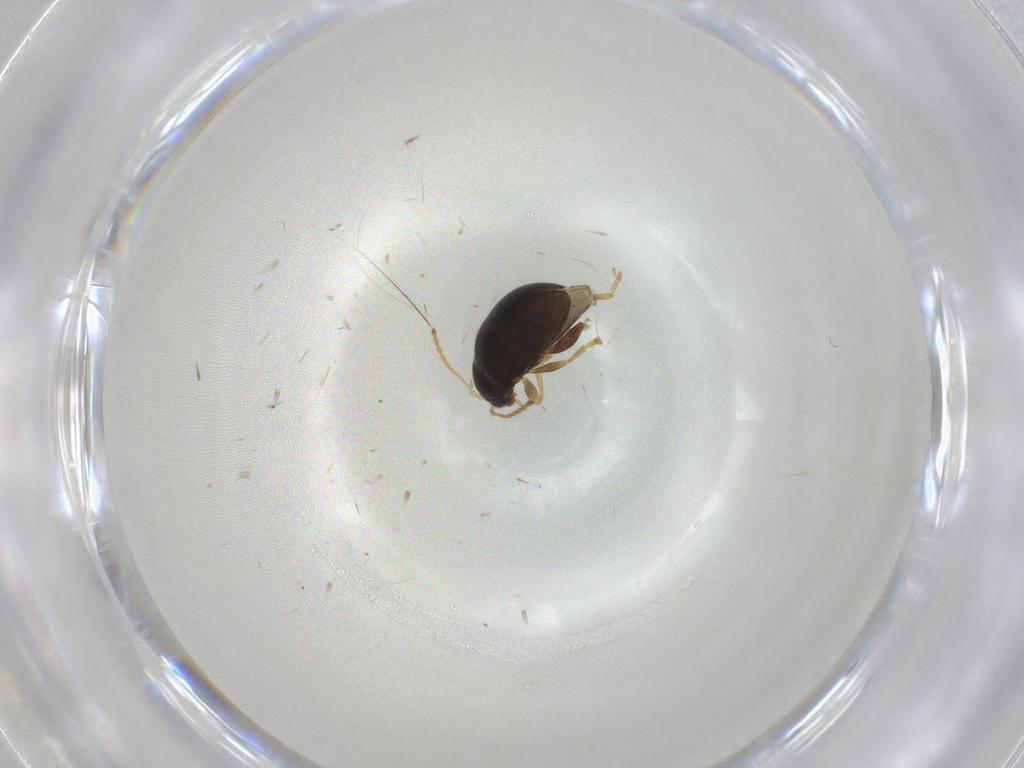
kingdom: Animalia
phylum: Arthropoda
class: Insecta
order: Coleoptera
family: Chrysomelidae
